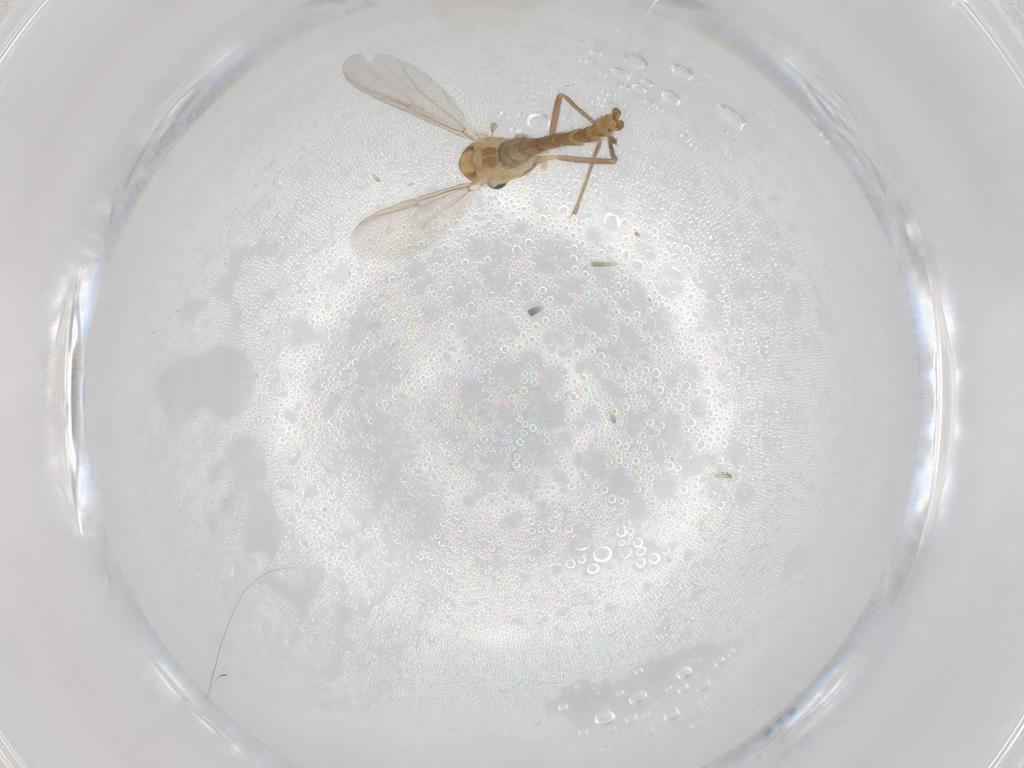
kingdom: Animalia
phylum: Arthropoda
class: Insecta
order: Diptera
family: Chironomidae
